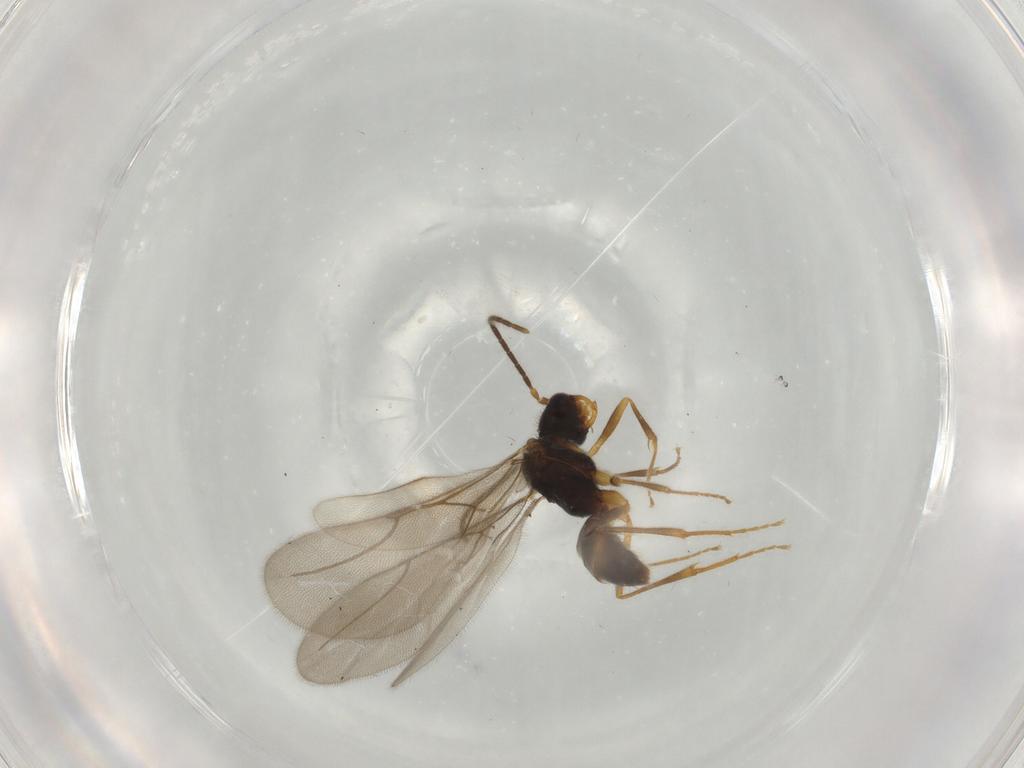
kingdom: Animalia
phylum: Arthropoda
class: Insecta
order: Hymenoptera
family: Bethylidae
